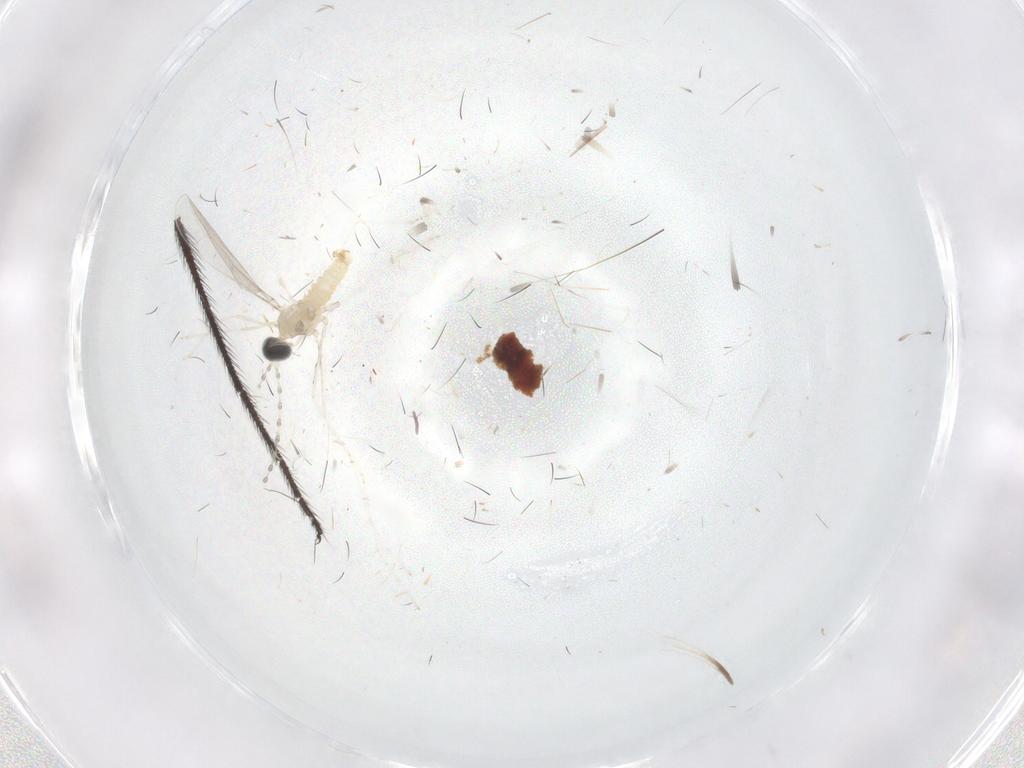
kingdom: Animalia
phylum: Arthropoda
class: Insecta
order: Diptera
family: Limoniidae
